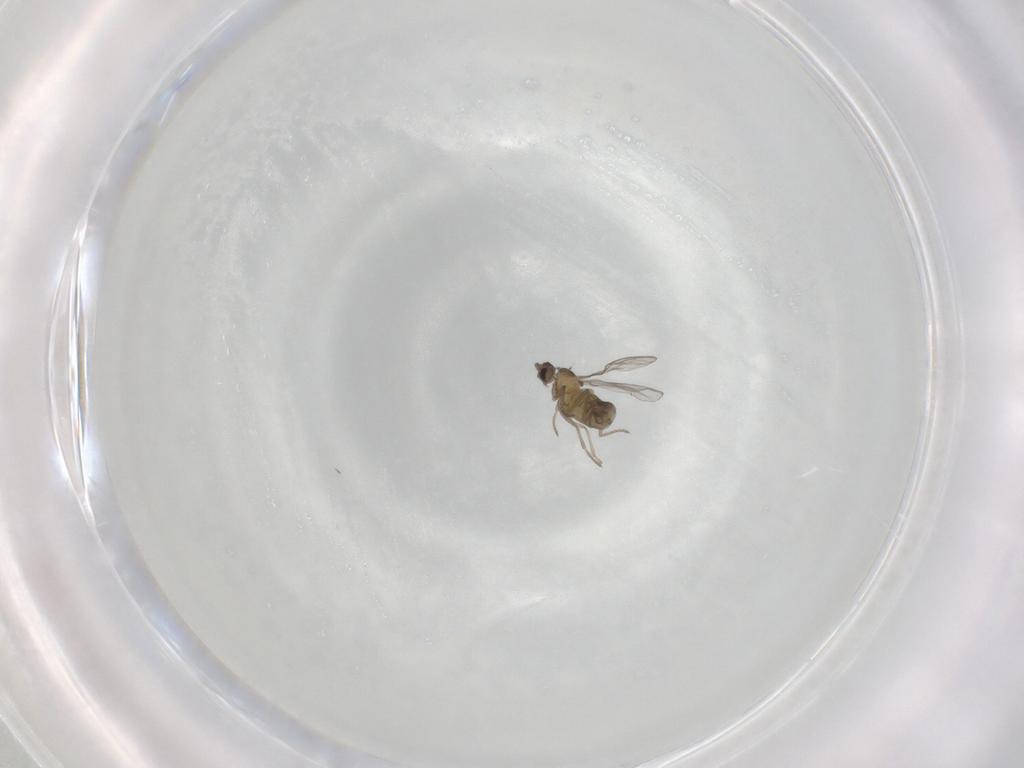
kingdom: Animalia
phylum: Arthropoda
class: Insecta
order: Diptera
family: Cecidomyiidae
